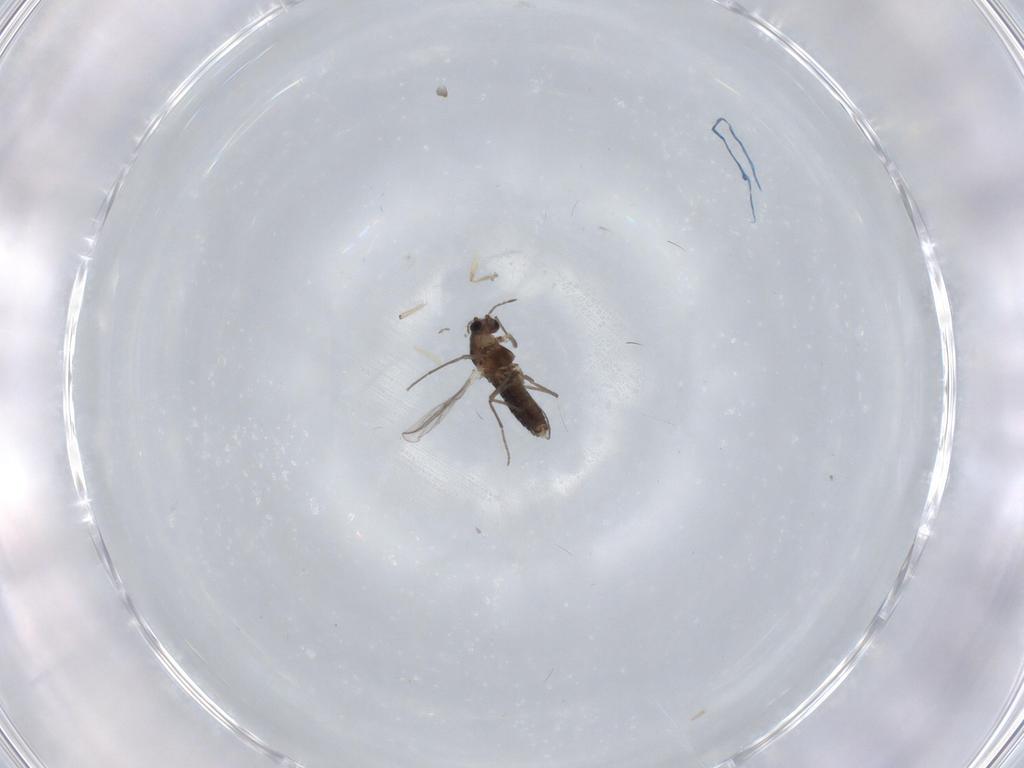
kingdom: Animalia
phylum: Arthropoda
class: Insecta
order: Diptera
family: Chironomidae
